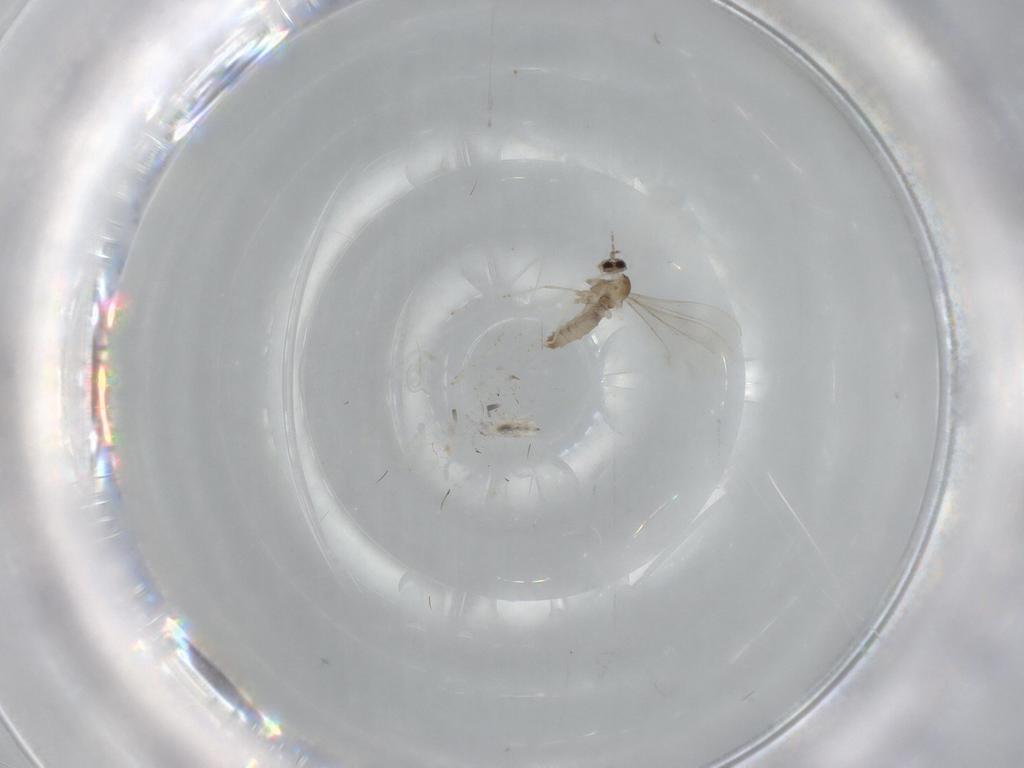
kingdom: Animalia
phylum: Arthropoda
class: Insecta
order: Diptera
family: Cecidomyiidae
